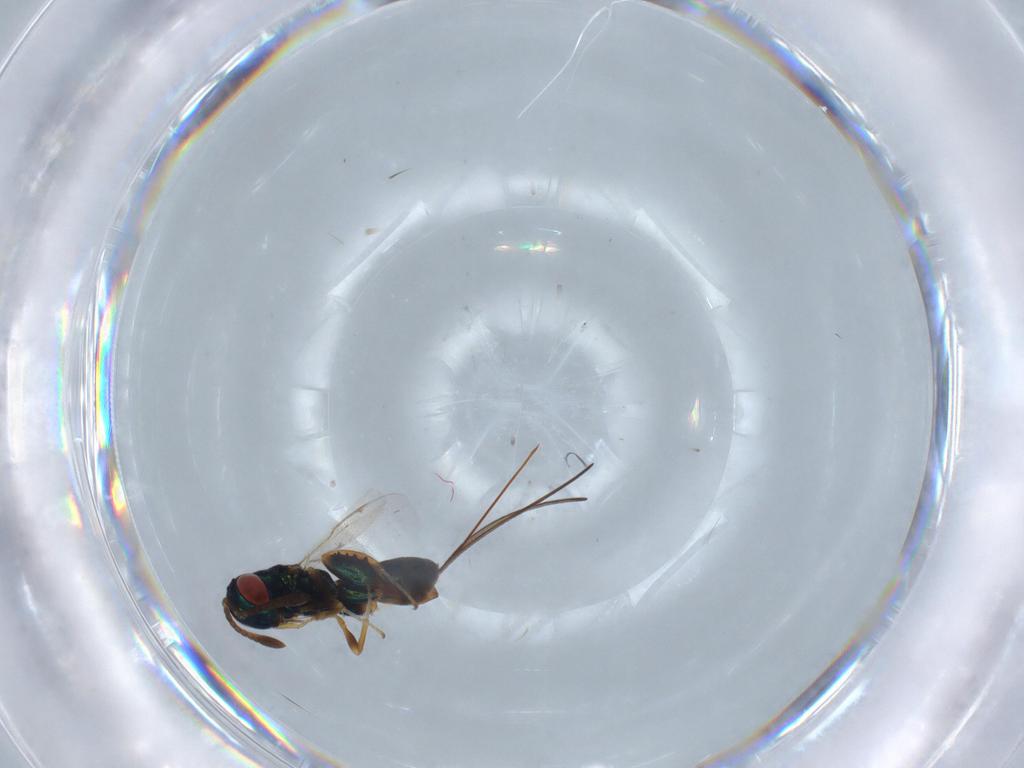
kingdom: Animalia
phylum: Arthropoda
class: Insecta
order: Hymenoptera
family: Torymidae
